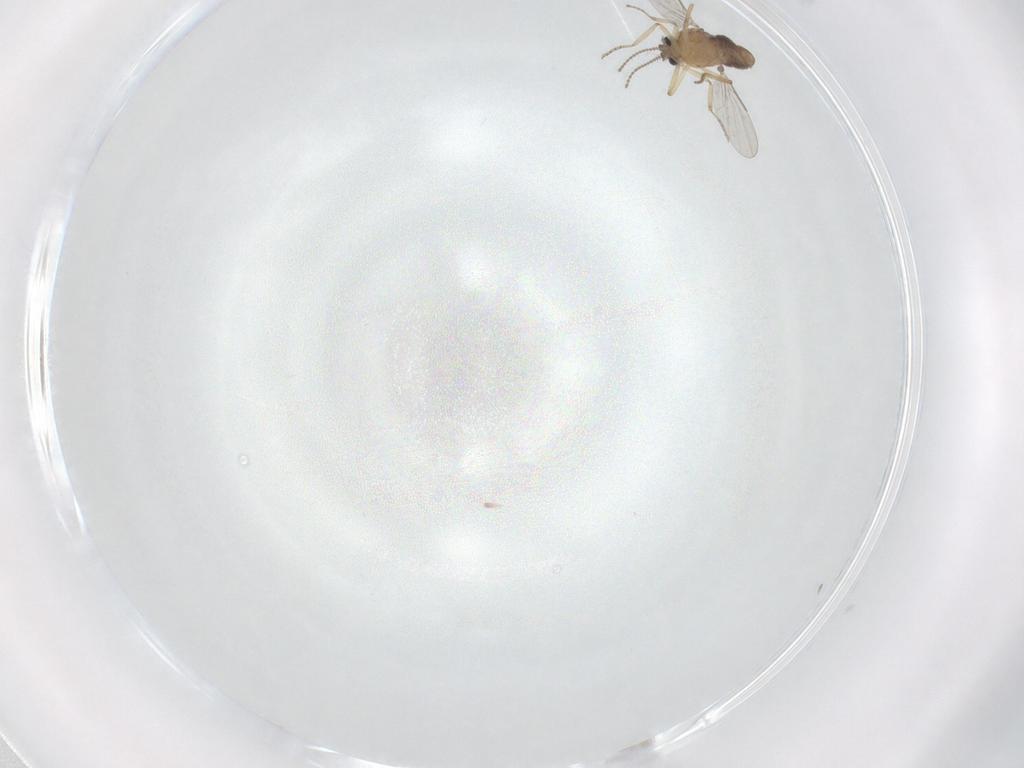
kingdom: Animalia
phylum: Arthropoda
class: Insecta
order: Diptera
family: Ceratopogonidae
